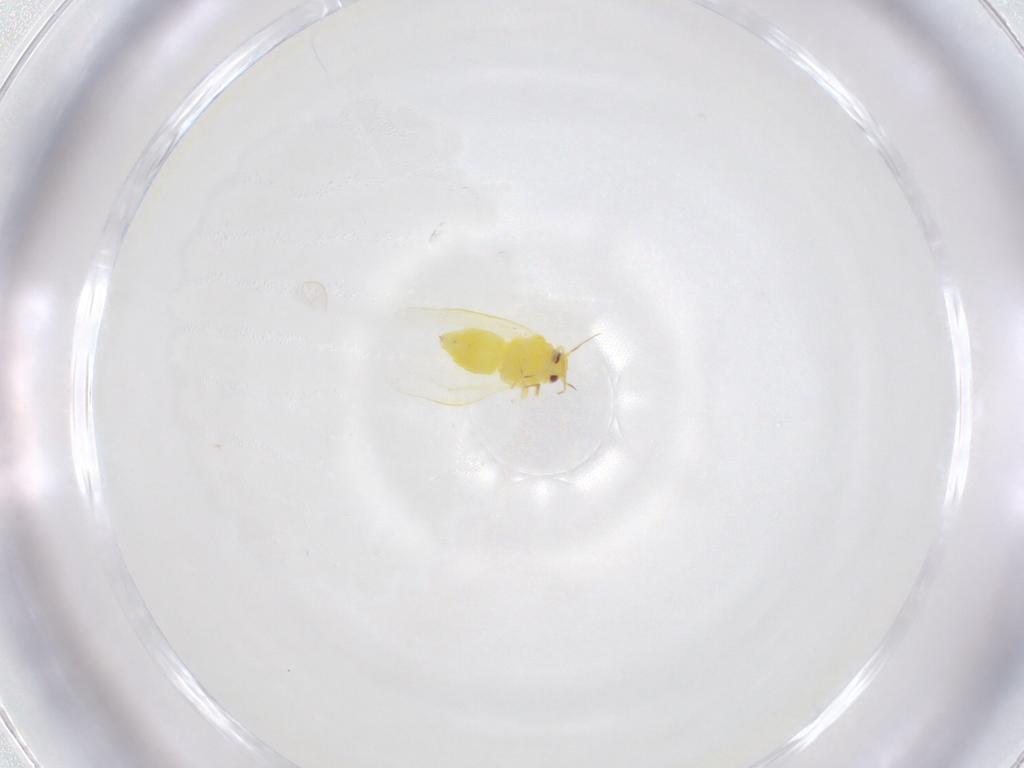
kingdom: Animalia
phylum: Arthropoda
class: Insecta
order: Hemiptera
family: Aleyrodidae
